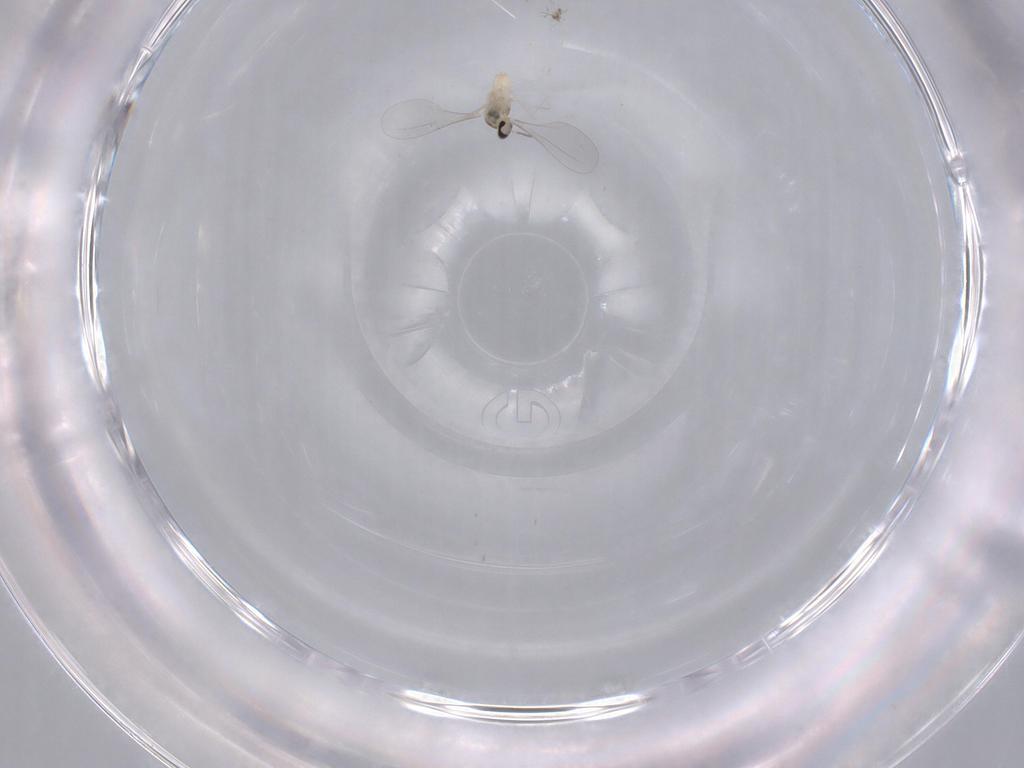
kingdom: Animalia
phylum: Arthropoda
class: Insecta
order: Diptera
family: Cecidomyiidae
